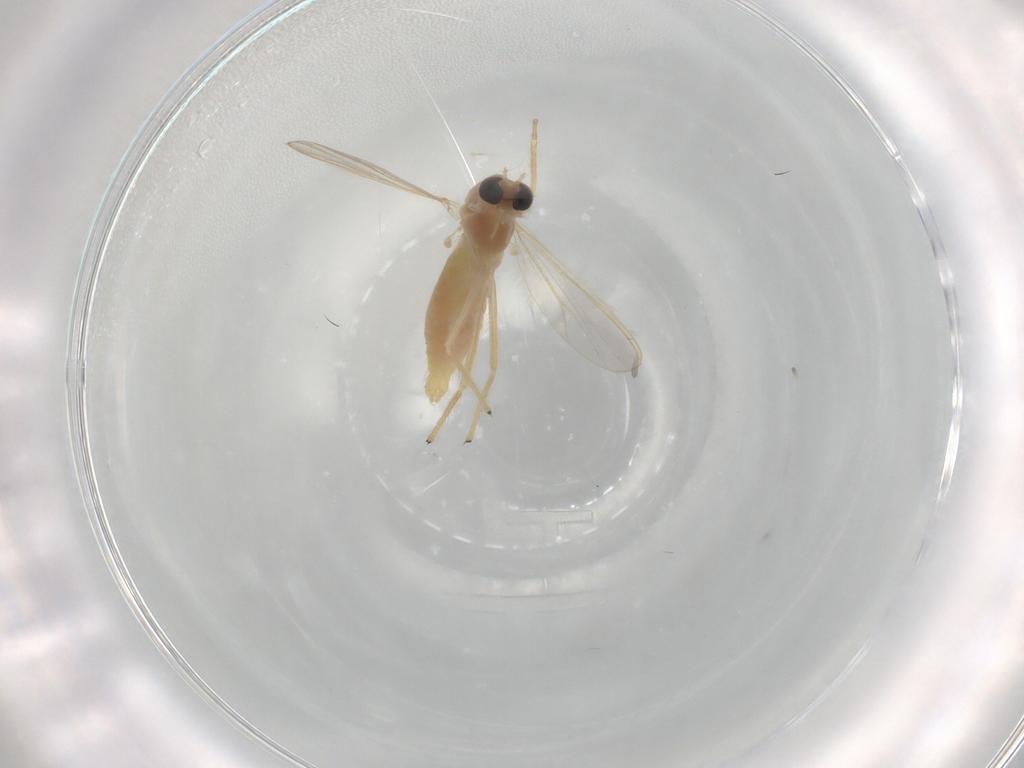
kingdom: Animalia
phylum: Arthropoda
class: Insecta
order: Diptera
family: Chironomidae
